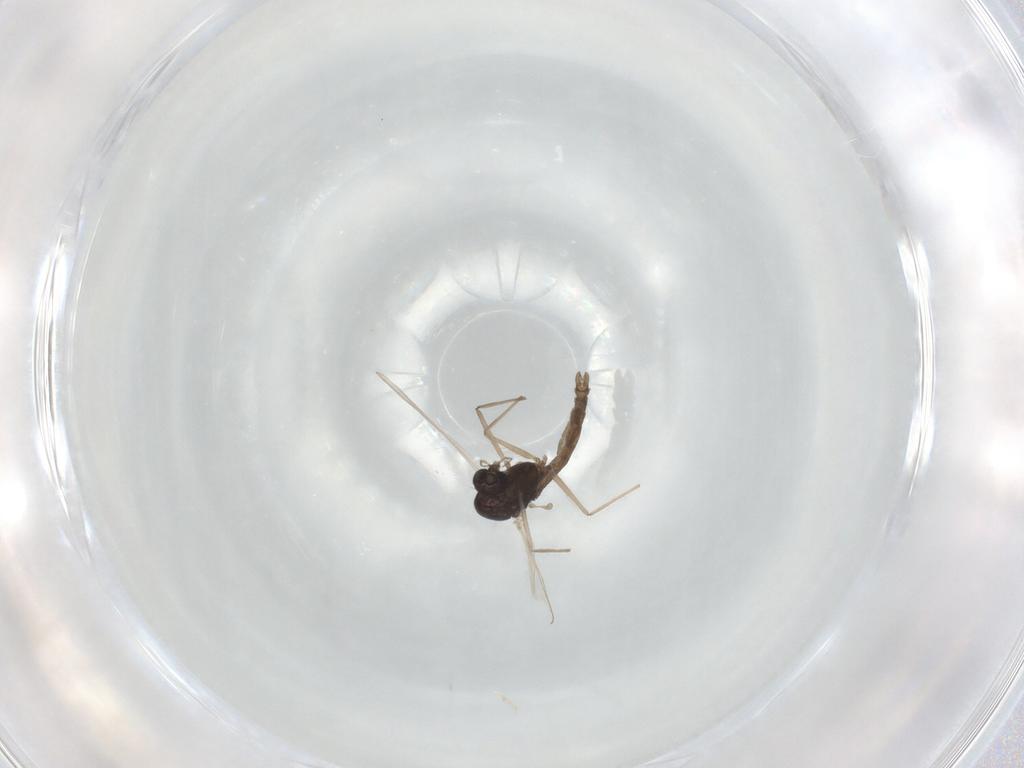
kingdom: Animalia
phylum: Arthropoda
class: Insecta
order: Diptera
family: Chironomidae
